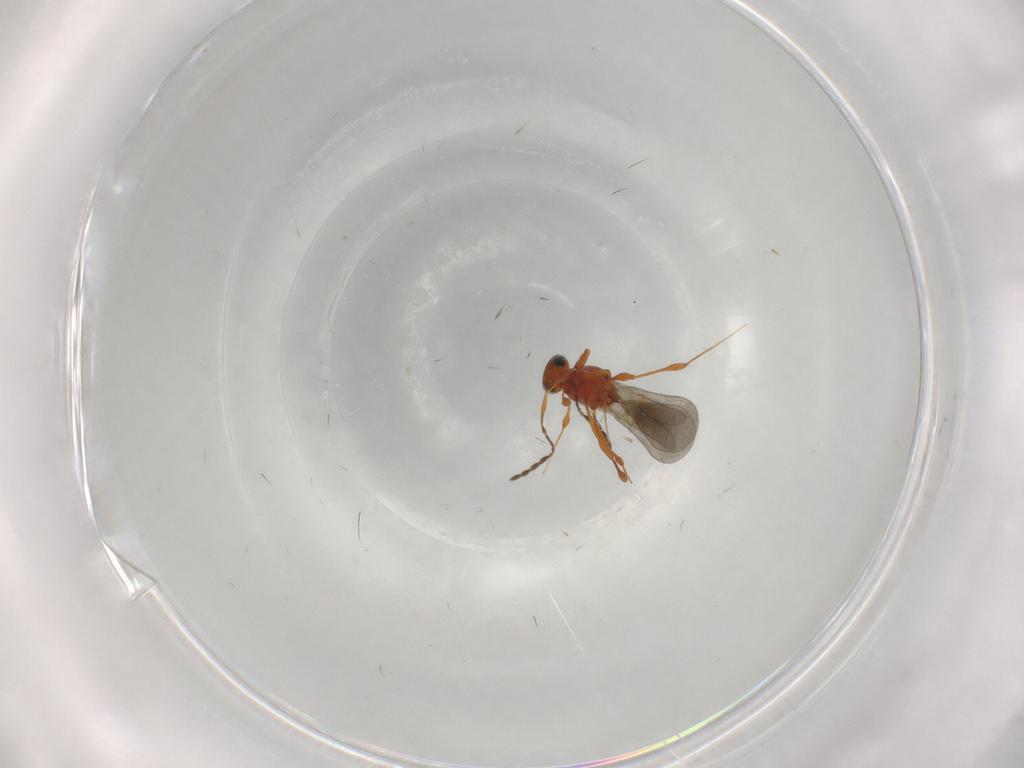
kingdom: Animalia
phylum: Arthropoda
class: Insecta
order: Hymenoptera
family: Platygastridae
